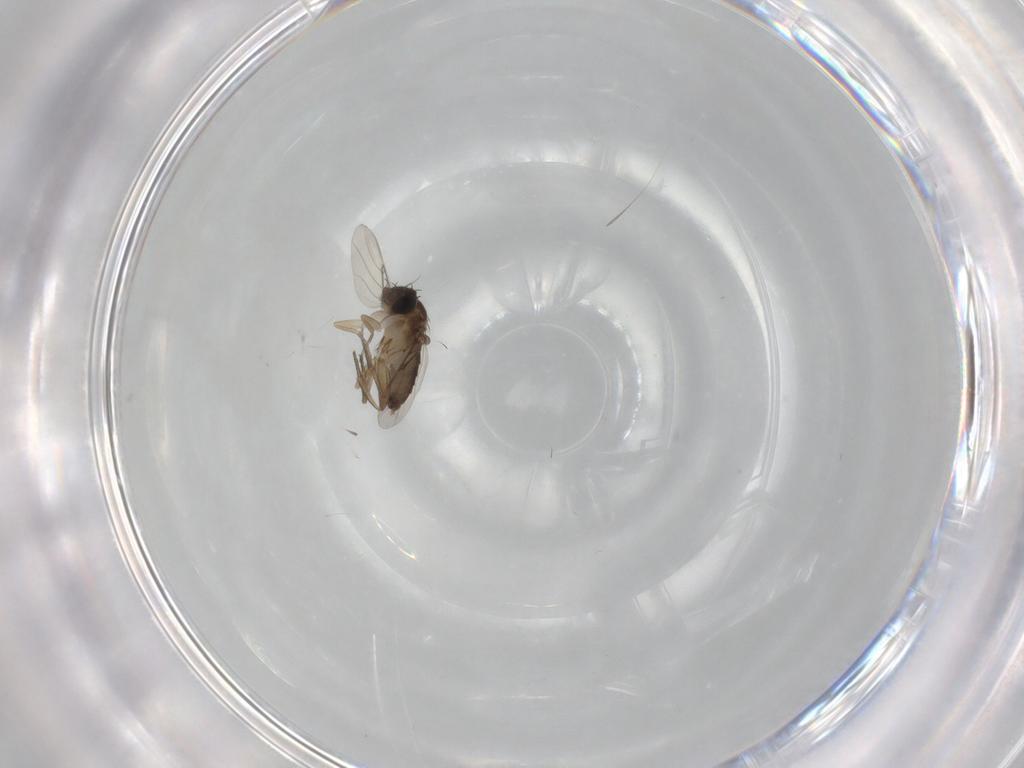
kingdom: Animalia
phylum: Arthropoda
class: Insecta
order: Diptera
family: Phoridae
